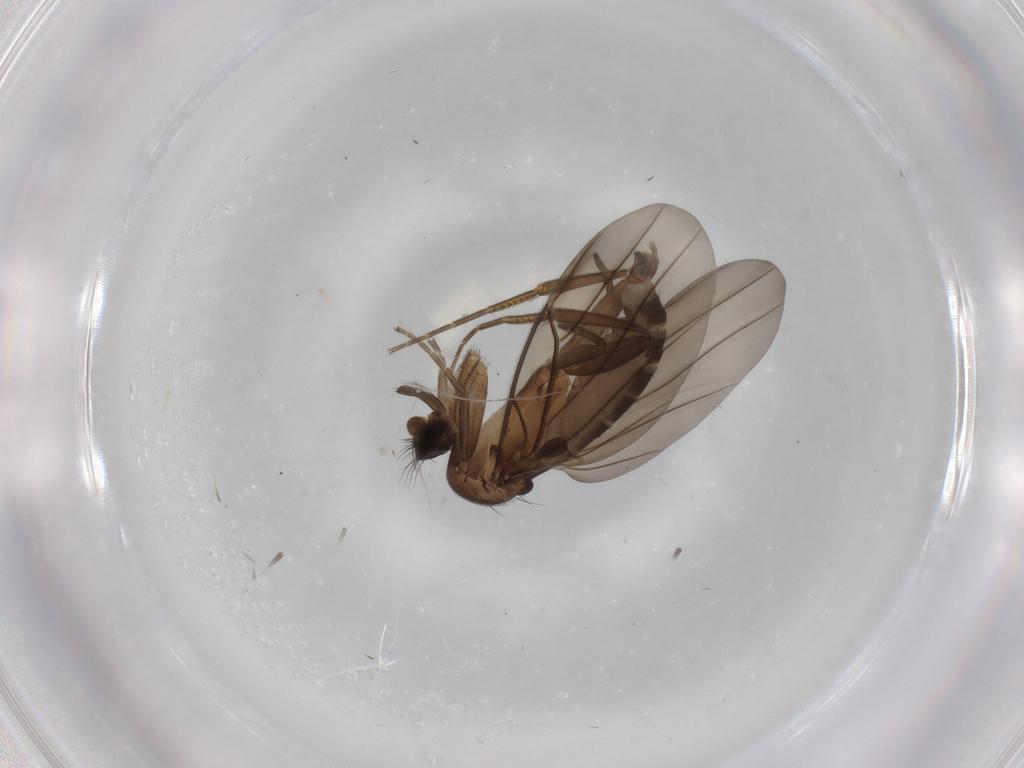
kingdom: Animalia
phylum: Arthropoda
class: Insecta
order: Diptera
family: Phoridae
